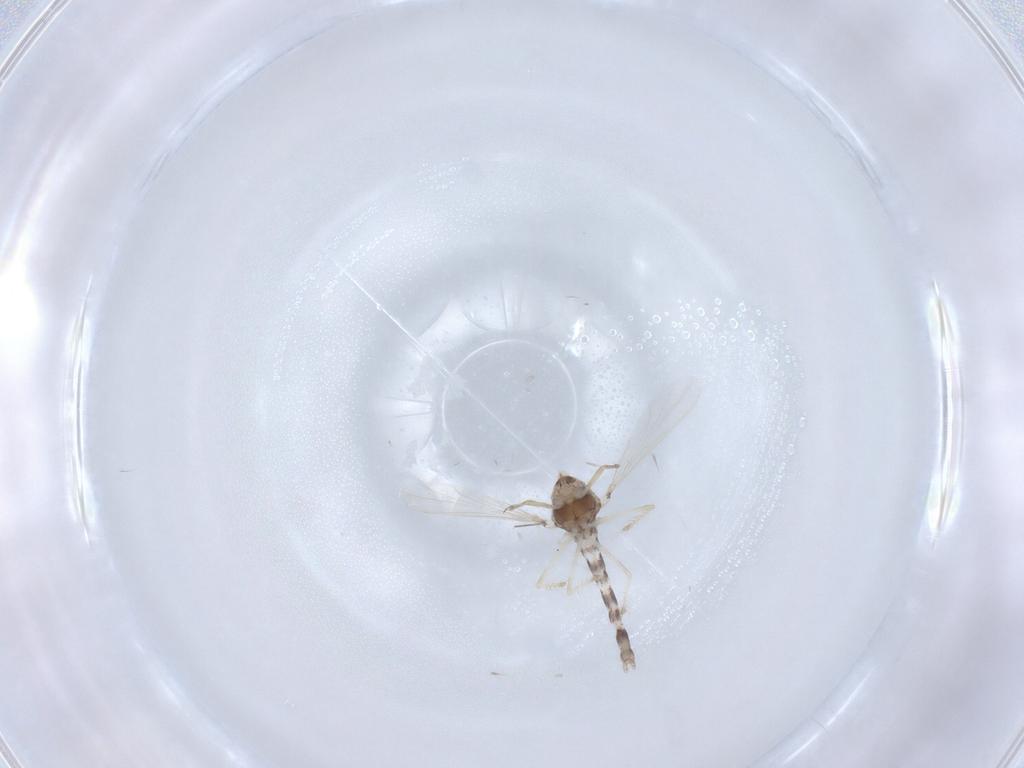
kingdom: Animalia
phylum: Arthropoda
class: Insecta
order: Diptera
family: Chironomidae
